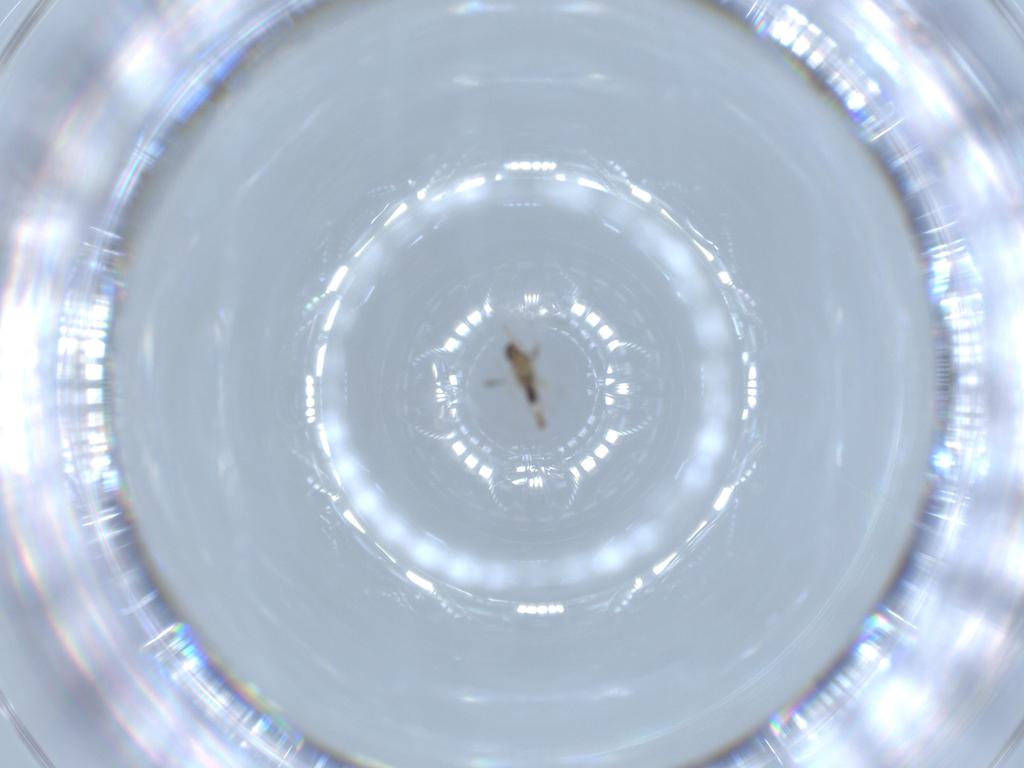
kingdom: Animalia
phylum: Arthropoda
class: Insecta
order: Diptera
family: Cecidomyiidae
